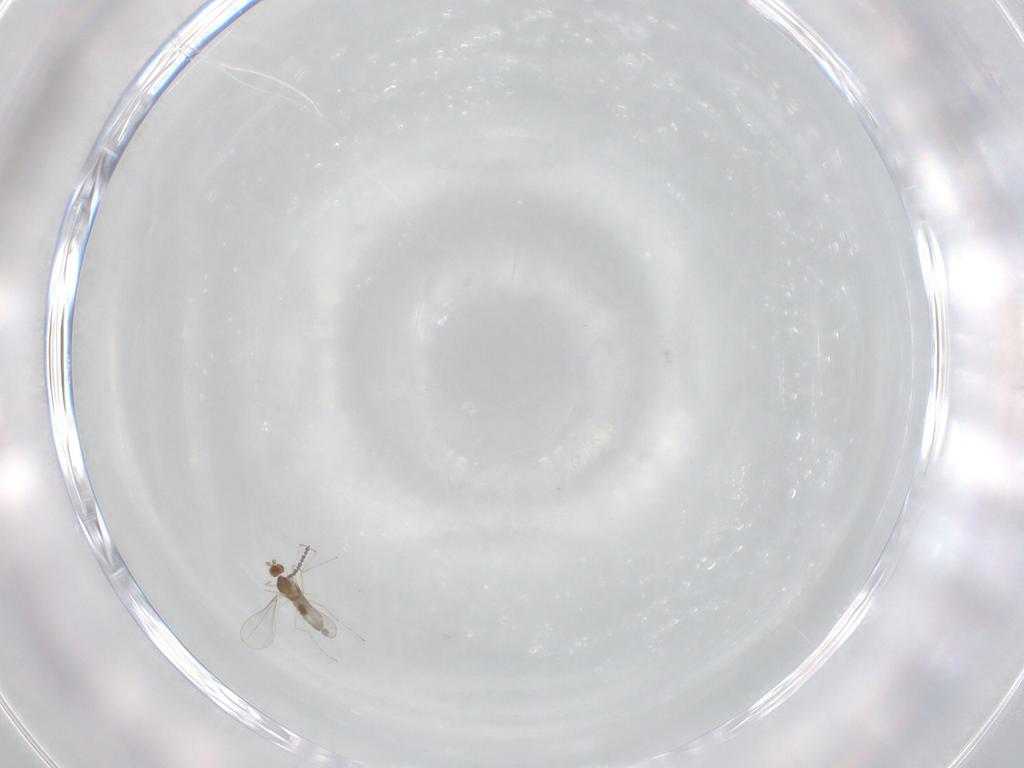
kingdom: Animalia
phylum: Arthropoda
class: Insecta
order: Diptera
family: Cecidomyiidae
